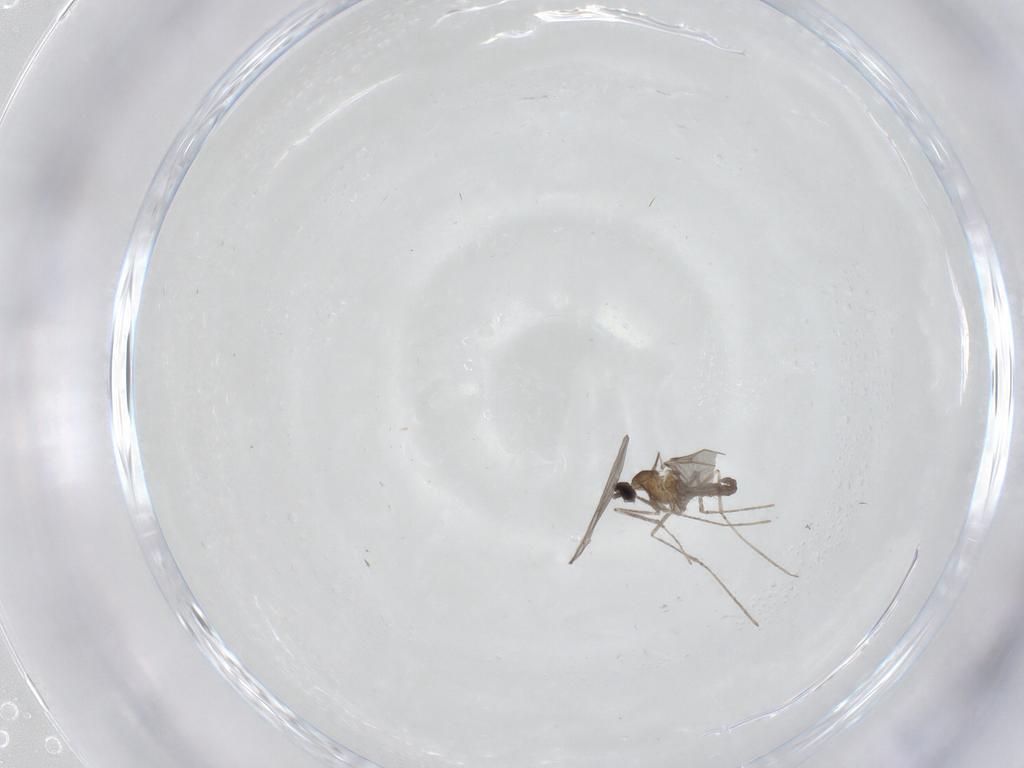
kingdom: Animalia
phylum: Arthropoda
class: Insecta
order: Diptera
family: Cecidomyiidae
